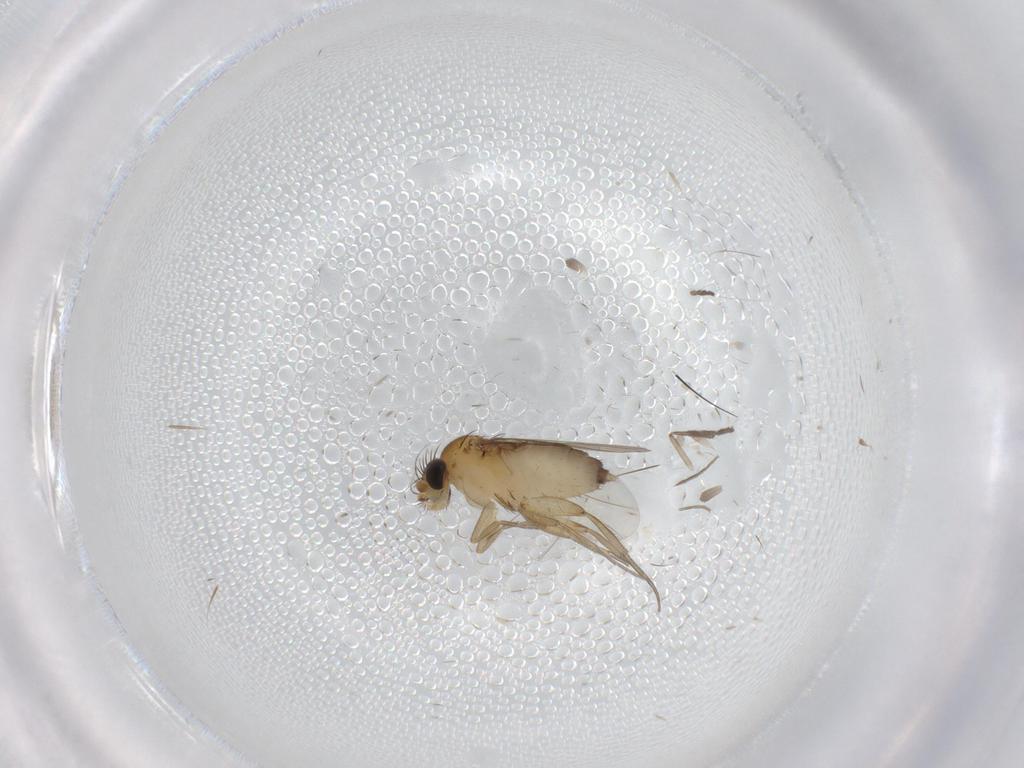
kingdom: Animalia
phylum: Arthropoda
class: Insecta
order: Diptera
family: Phoridae
